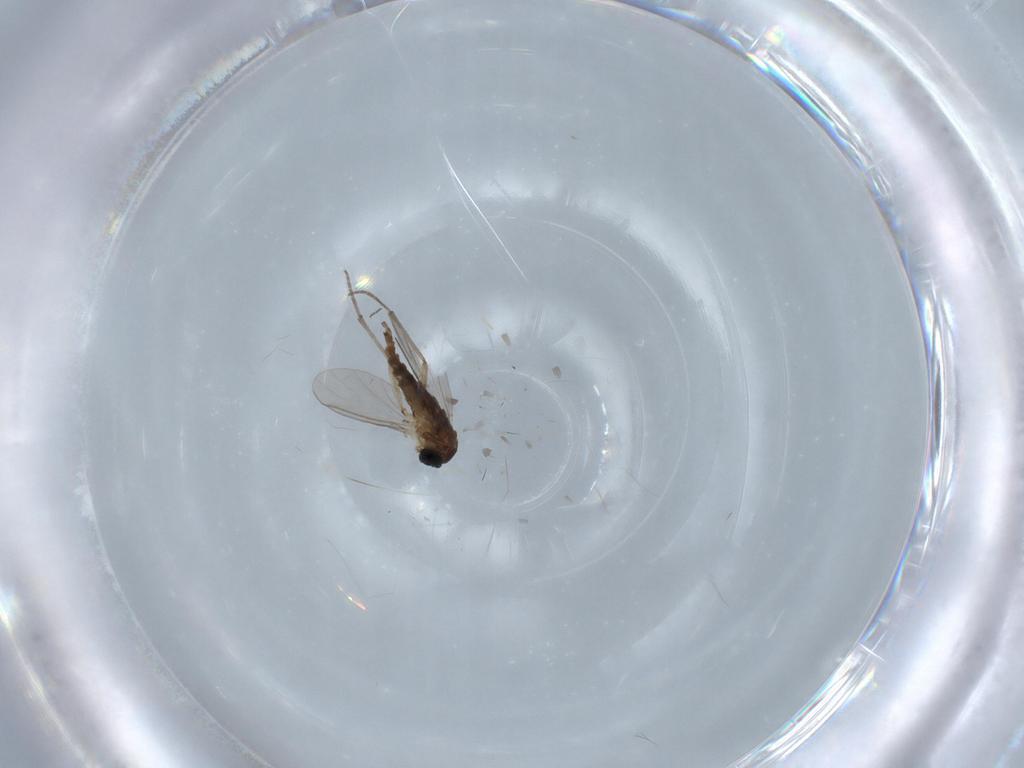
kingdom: Animalia
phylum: Arthropoda
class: Insecta
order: Diptera
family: Sciaridae
